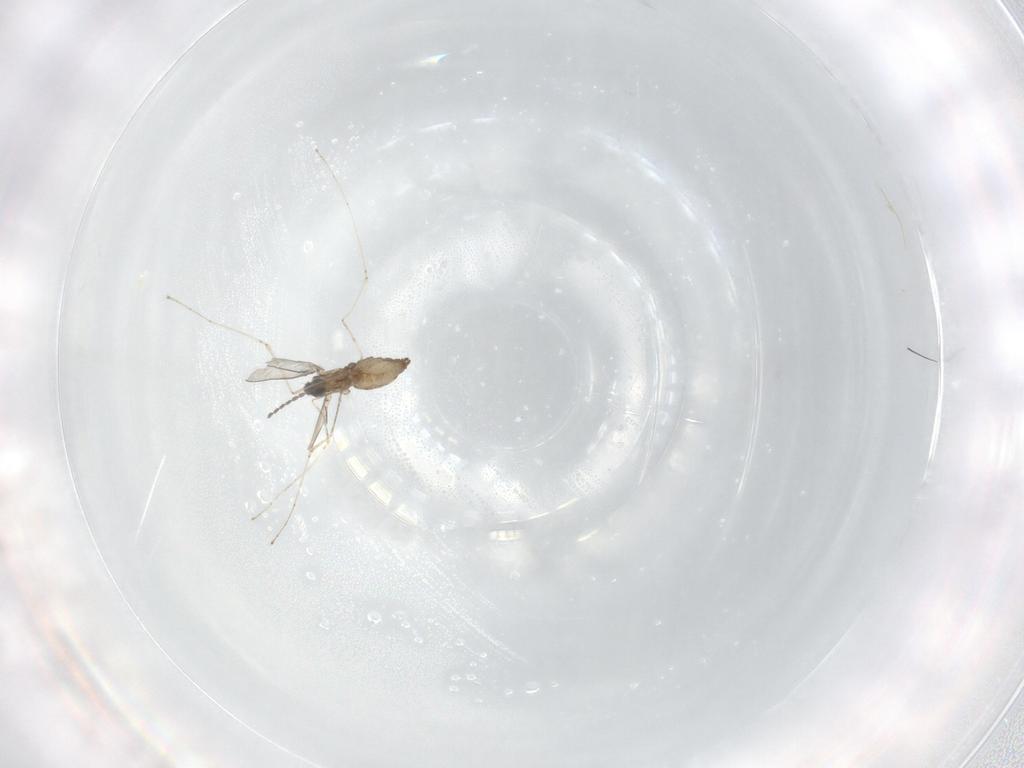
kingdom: Animalia
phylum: Arthropoda
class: Insecta
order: Diptera
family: Cecidomyiidae
